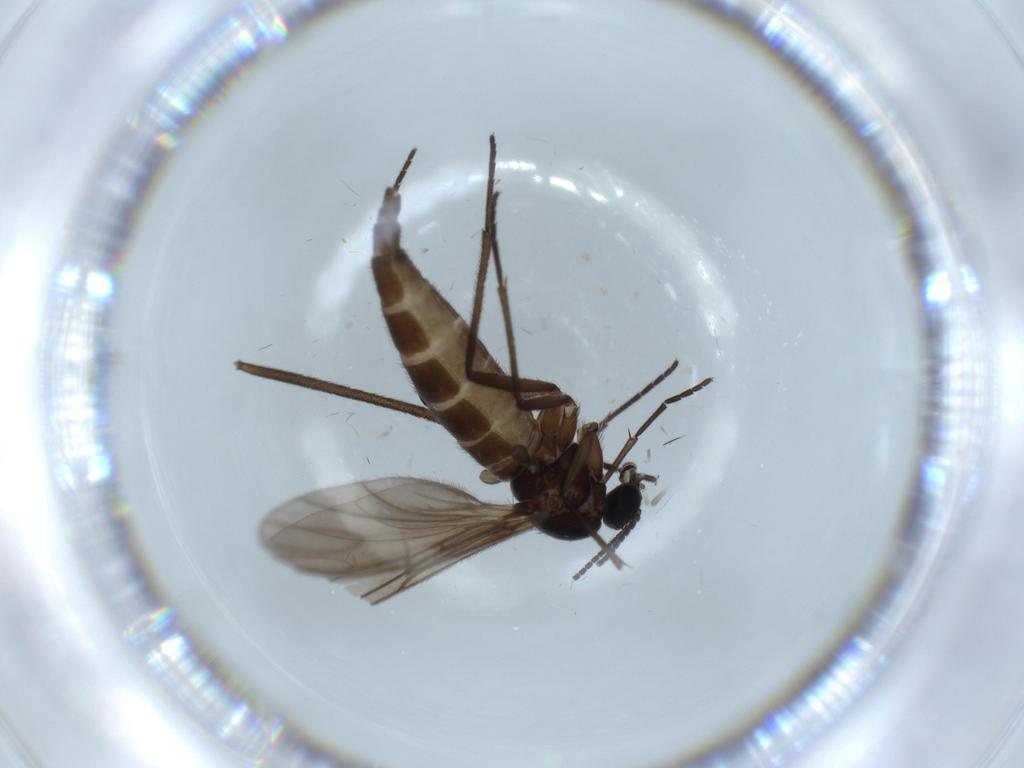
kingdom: Animalia
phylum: Arthropoda
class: Insecta
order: Diptera
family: Sciaridae
